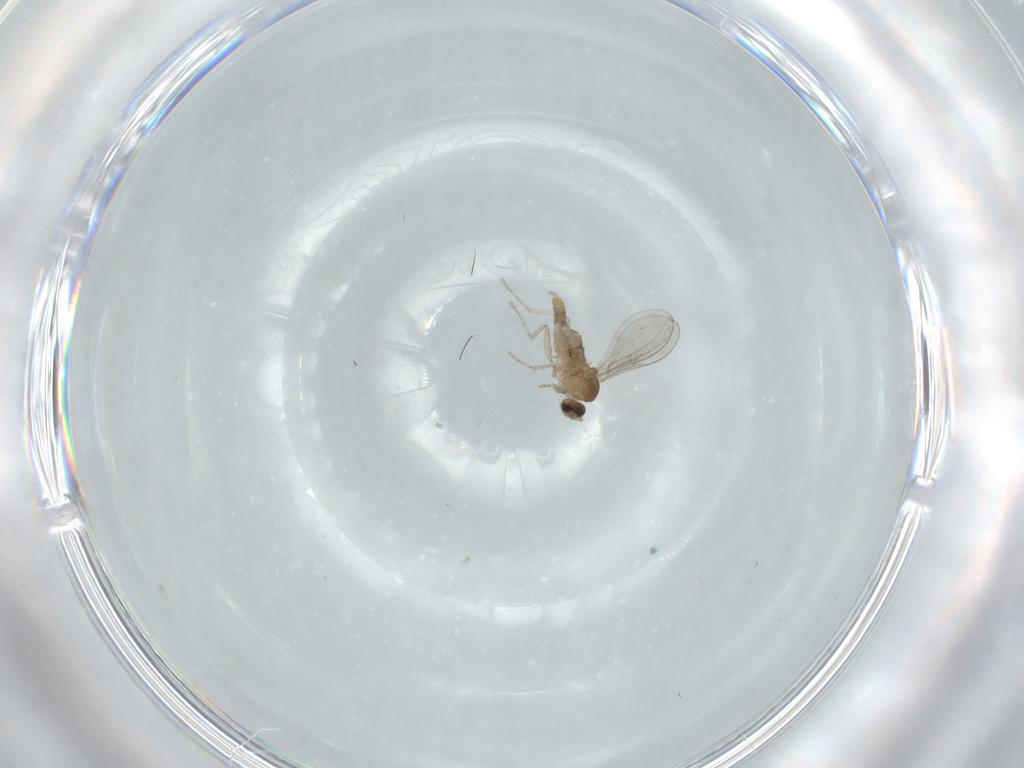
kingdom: Animalia
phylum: Arthropoda
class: Insecta
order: Diptera
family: Cecidomyiidae
